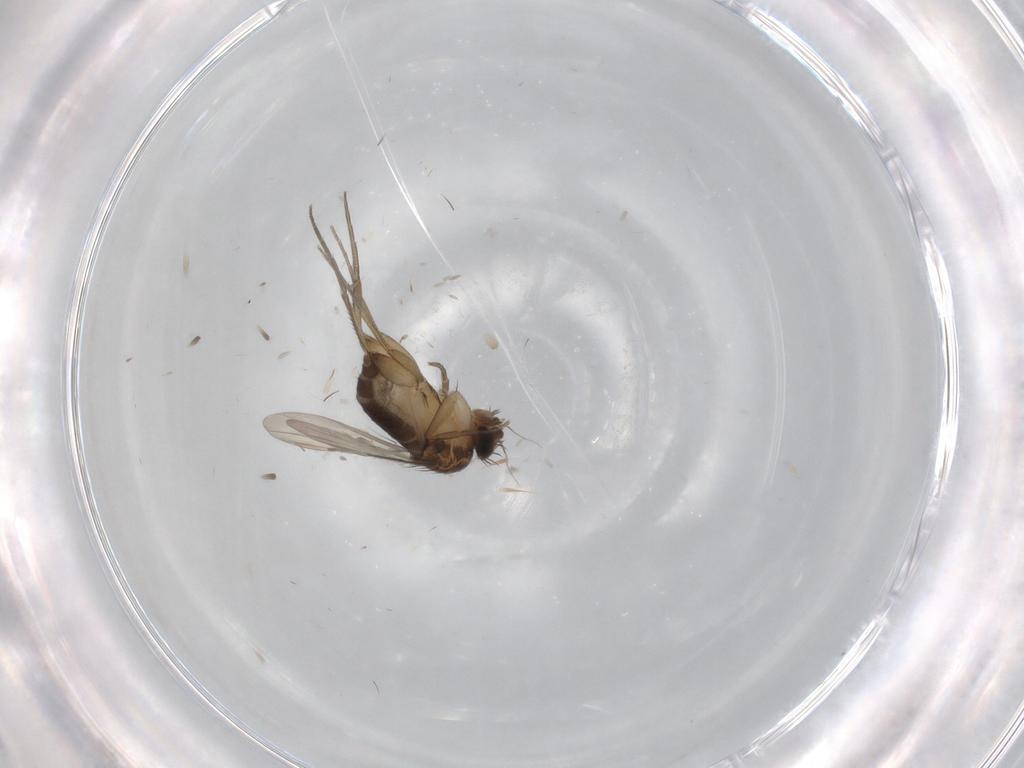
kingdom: Animalia
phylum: Arthropoda
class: Insecta
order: Diptera
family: Phoridae
